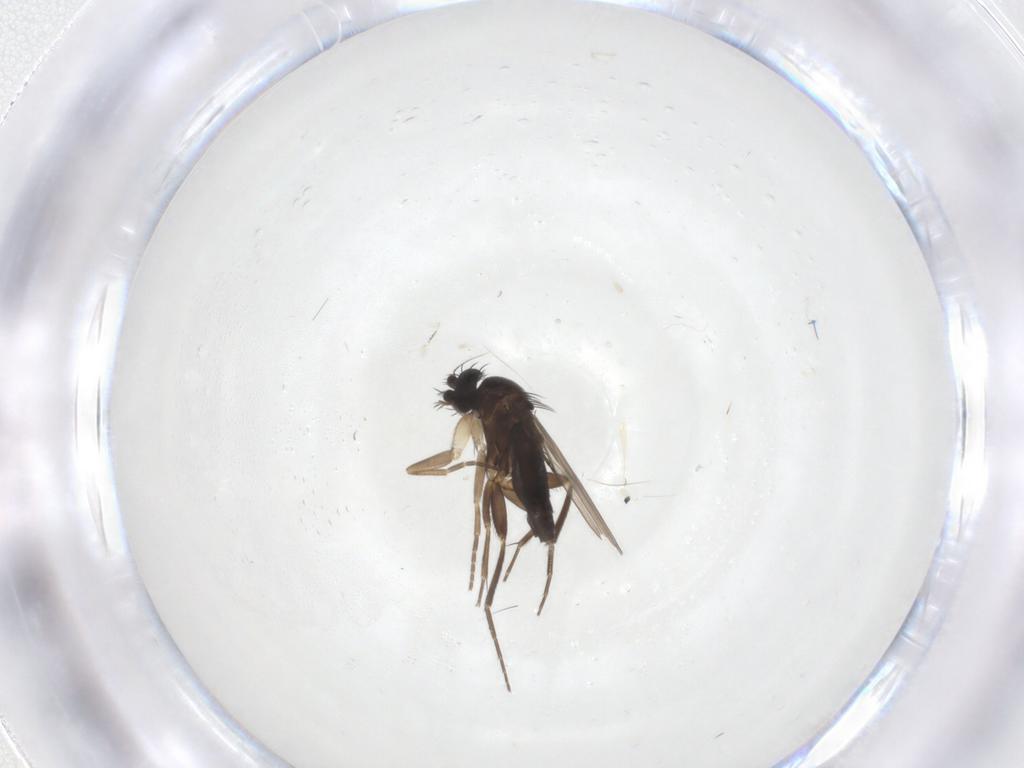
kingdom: Animalia
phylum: Arthropoda
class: Insecta
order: Diptera
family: Phoridae
